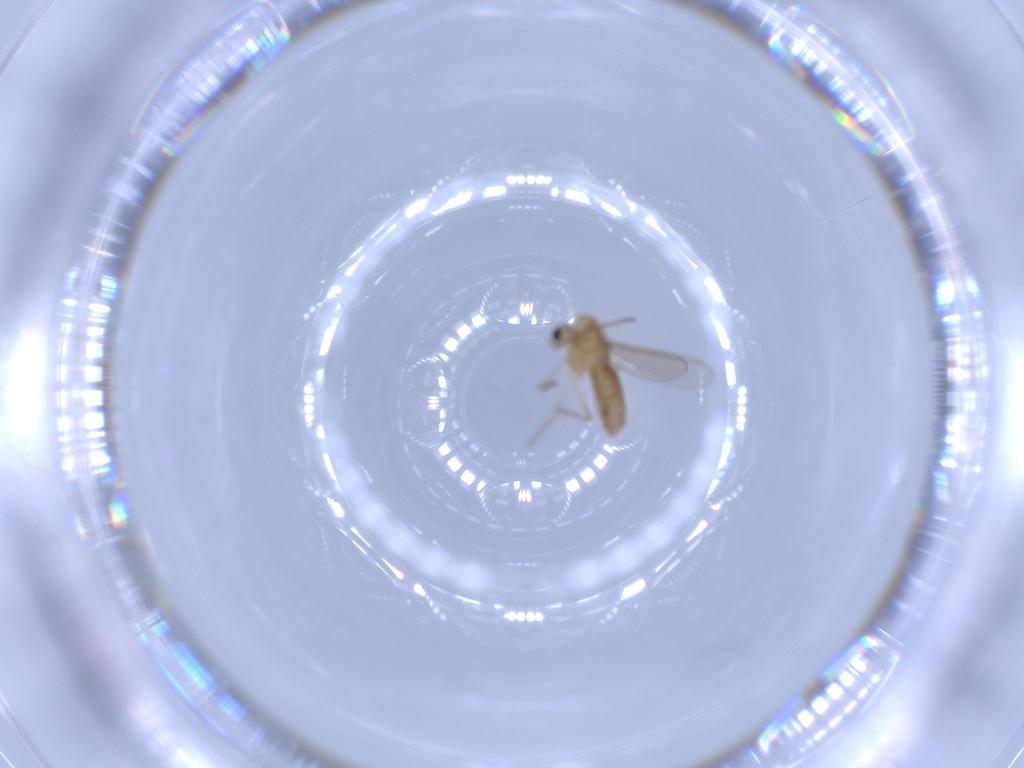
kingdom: Animalia
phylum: Arthropoda
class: Insecta
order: Diptera
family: Chironomidae
